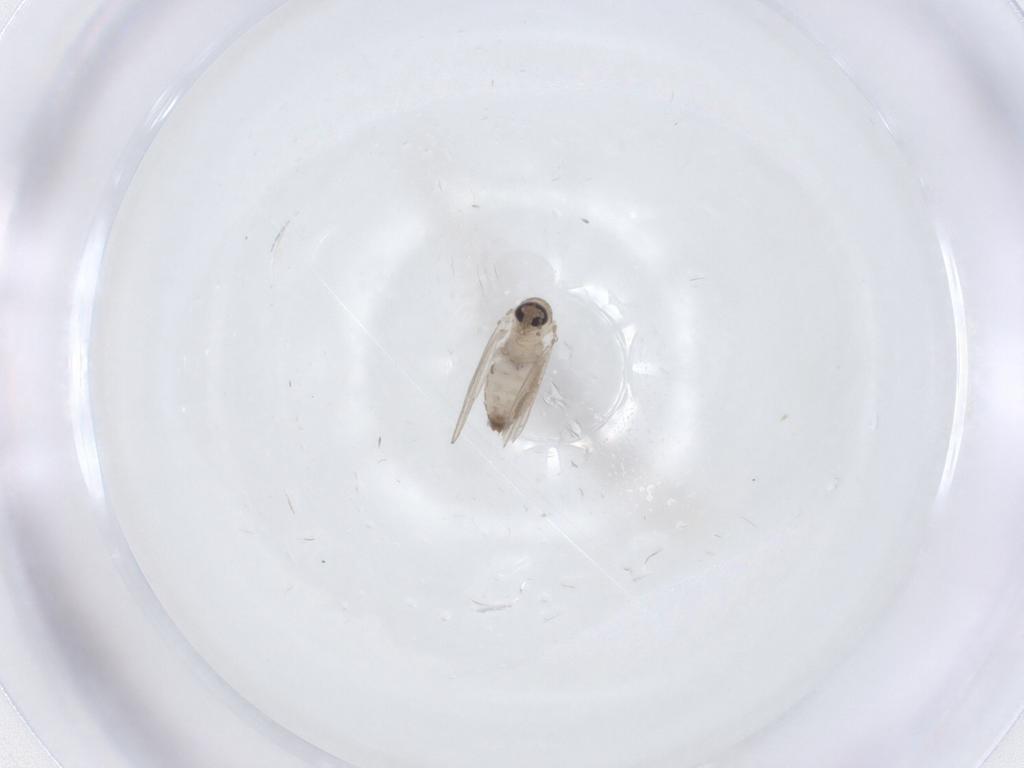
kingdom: Animalia
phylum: Arthropoda
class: Insecta
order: Diptera
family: Psychodidae
